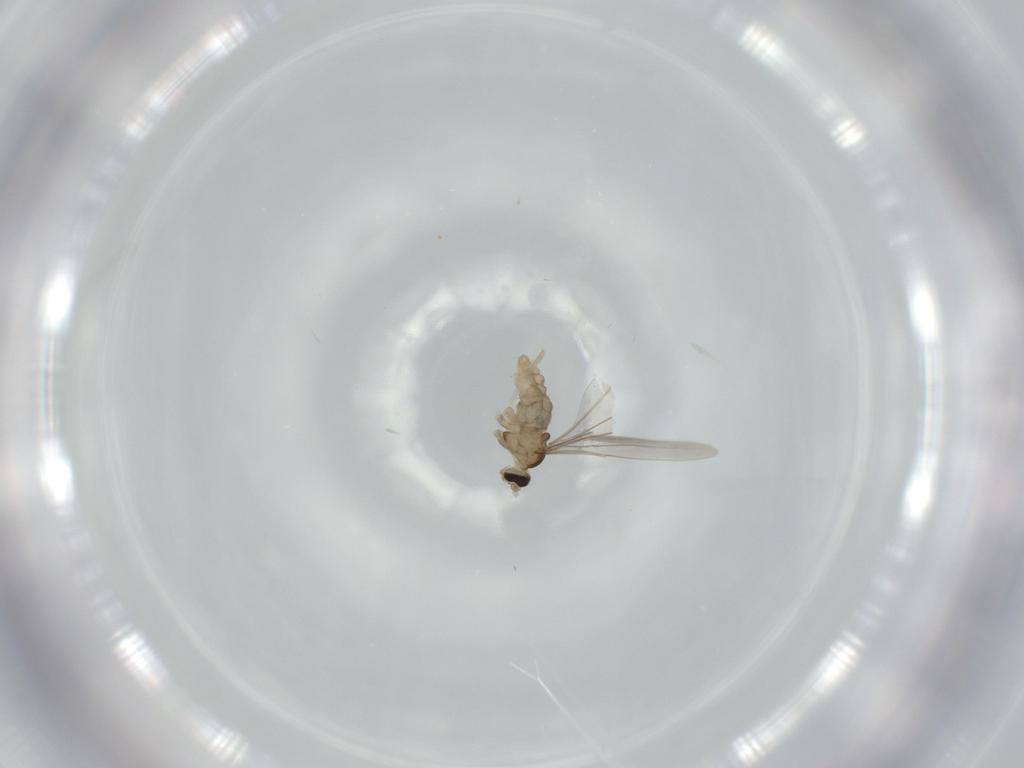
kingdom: Animalia
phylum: Arthropoda
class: Insecta
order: Diptera
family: Cecidomyiidae
